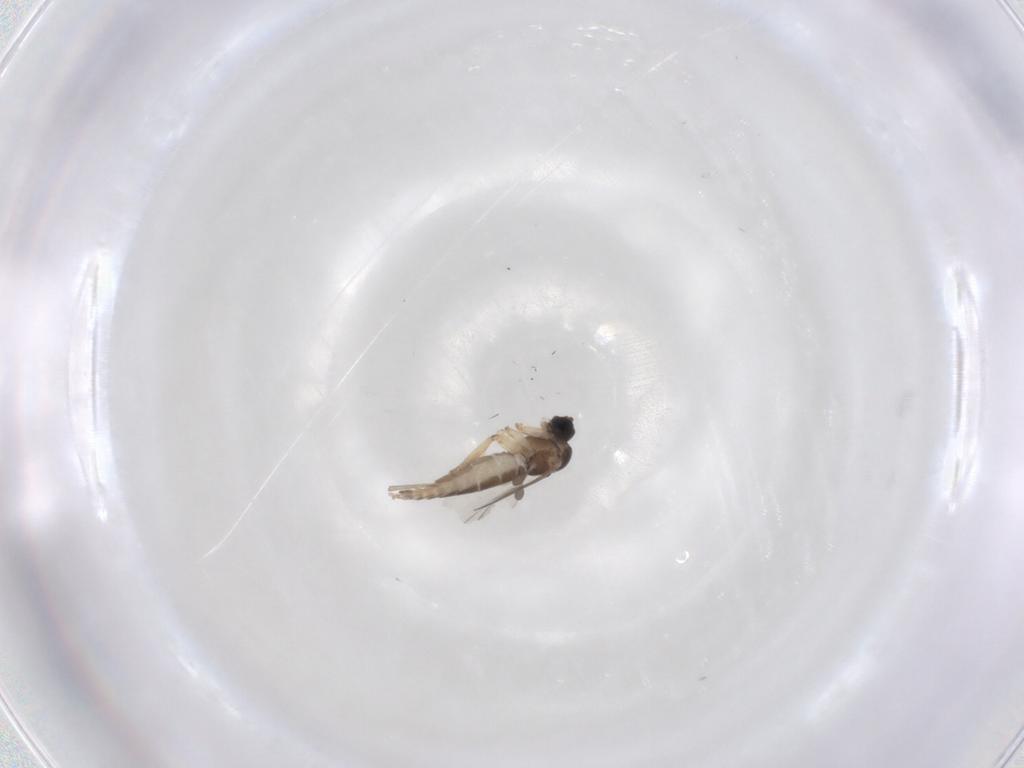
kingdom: Animalia
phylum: Arthropoda
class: Insecta
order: Diptera
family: Sciaridae
